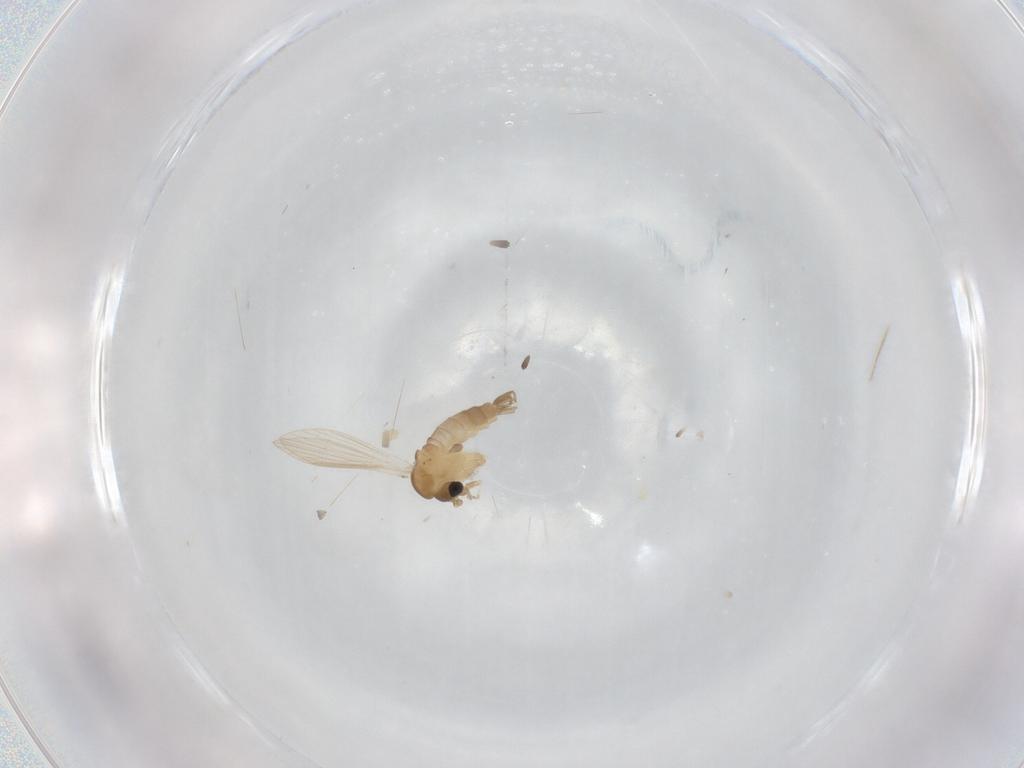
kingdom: Animalia
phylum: Arthropoda
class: Insecta
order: Diptera
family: Psychodidae
